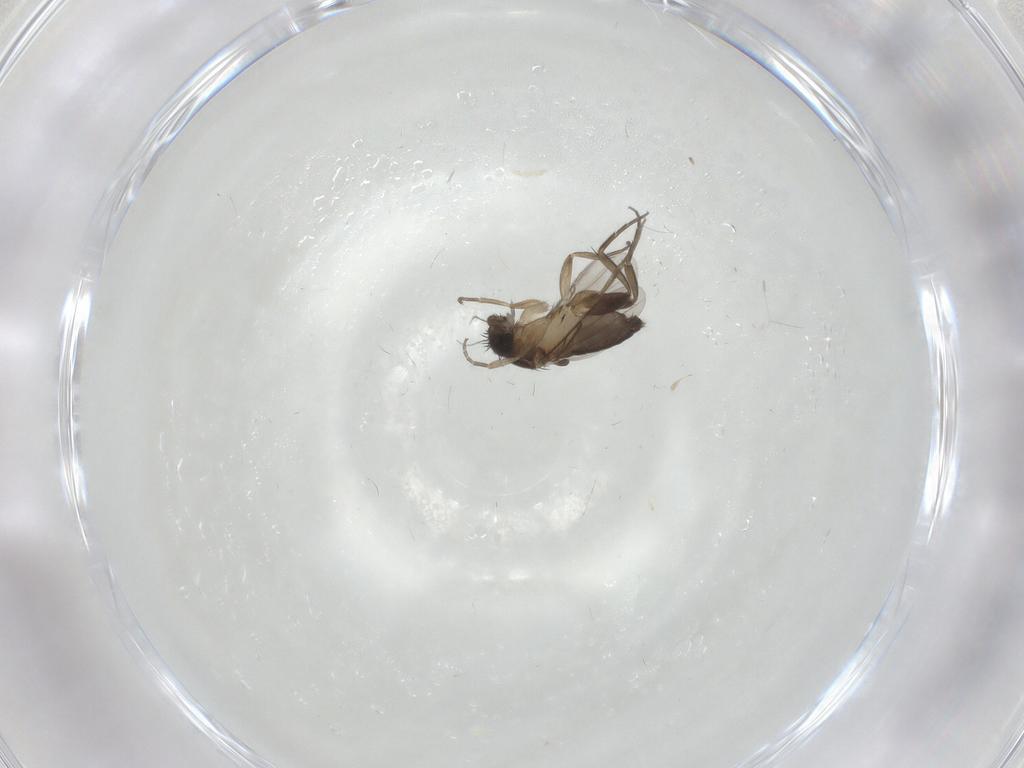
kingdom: Animalia
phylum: Arthropoda
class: Insecta
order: Diptera
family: Phoridae
